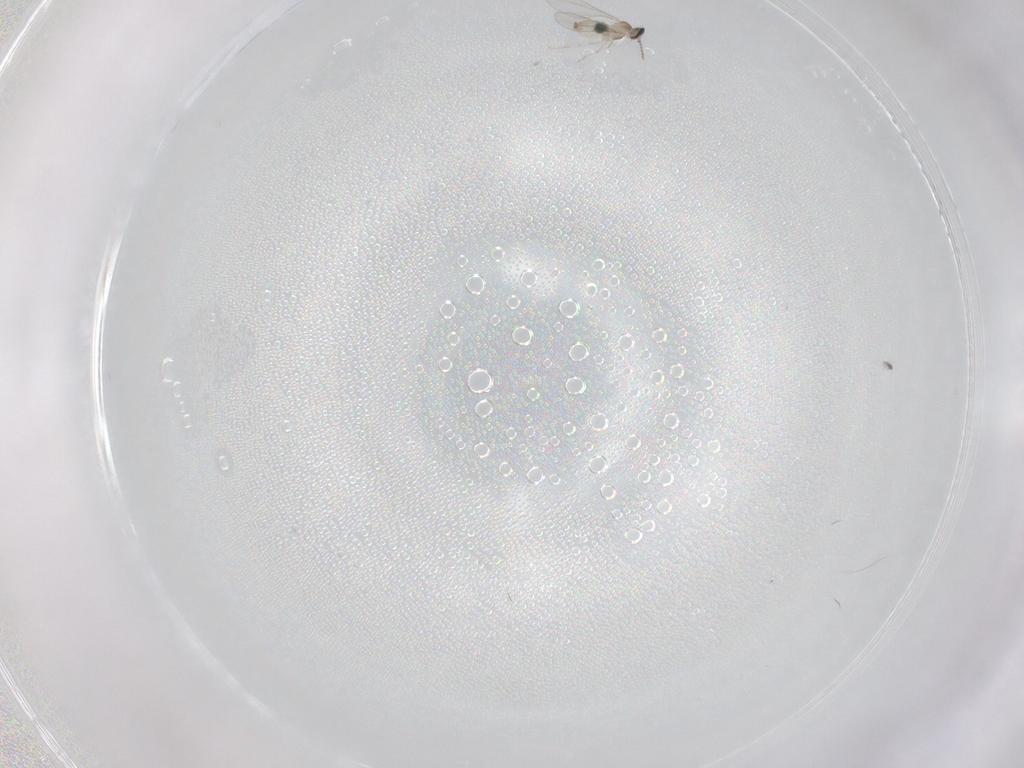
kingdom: Animalia
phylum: Arthropoda
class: Insecta
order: Diptera
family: Cecidomyiidae
